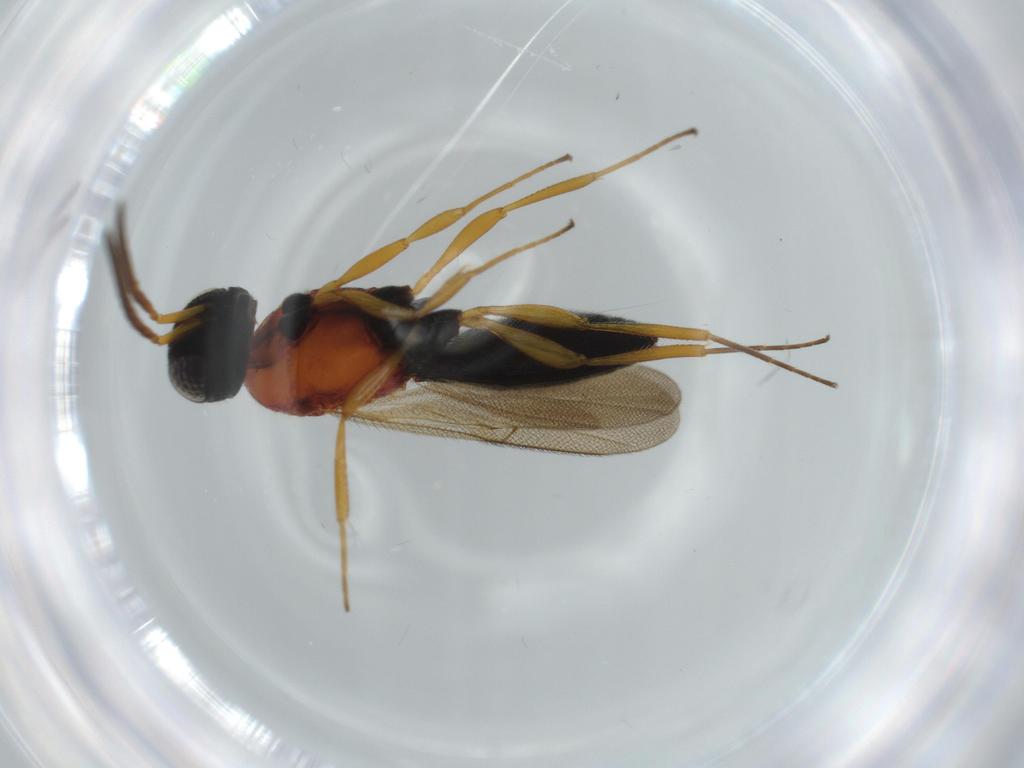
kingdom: Animalia
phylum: Arthropoda
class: Insecta
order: Hymenoptera
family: Scelionidae
